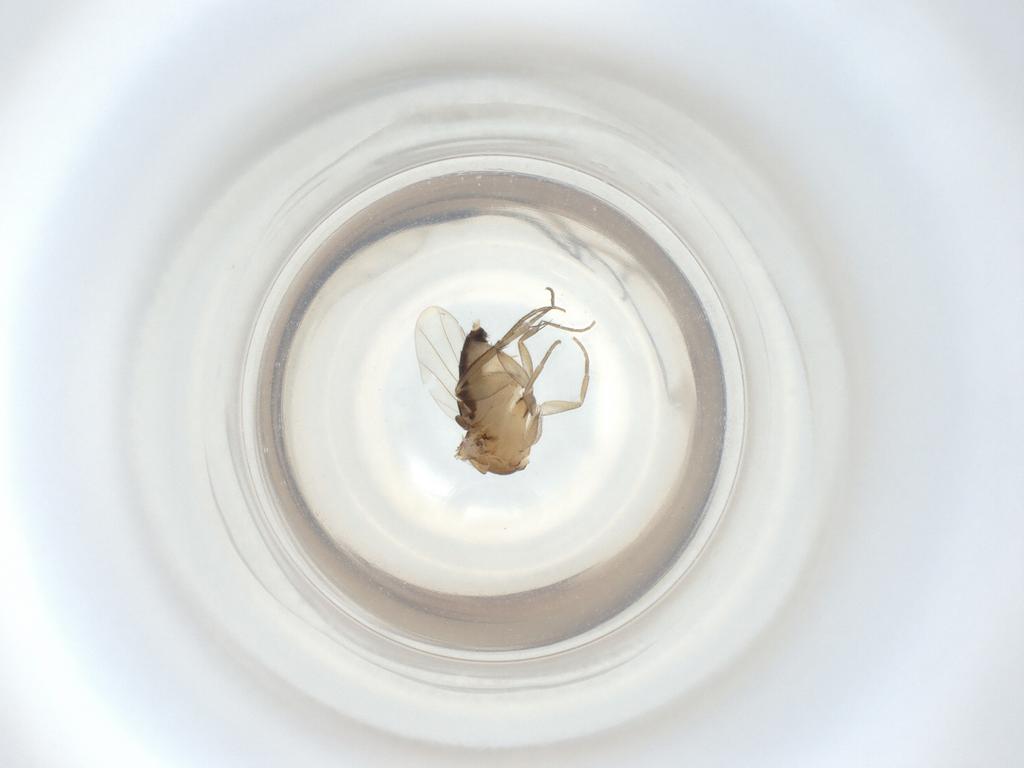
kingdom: Animalia
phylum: Arthropoda
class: Insecta
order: Diptera
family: Phoridae
